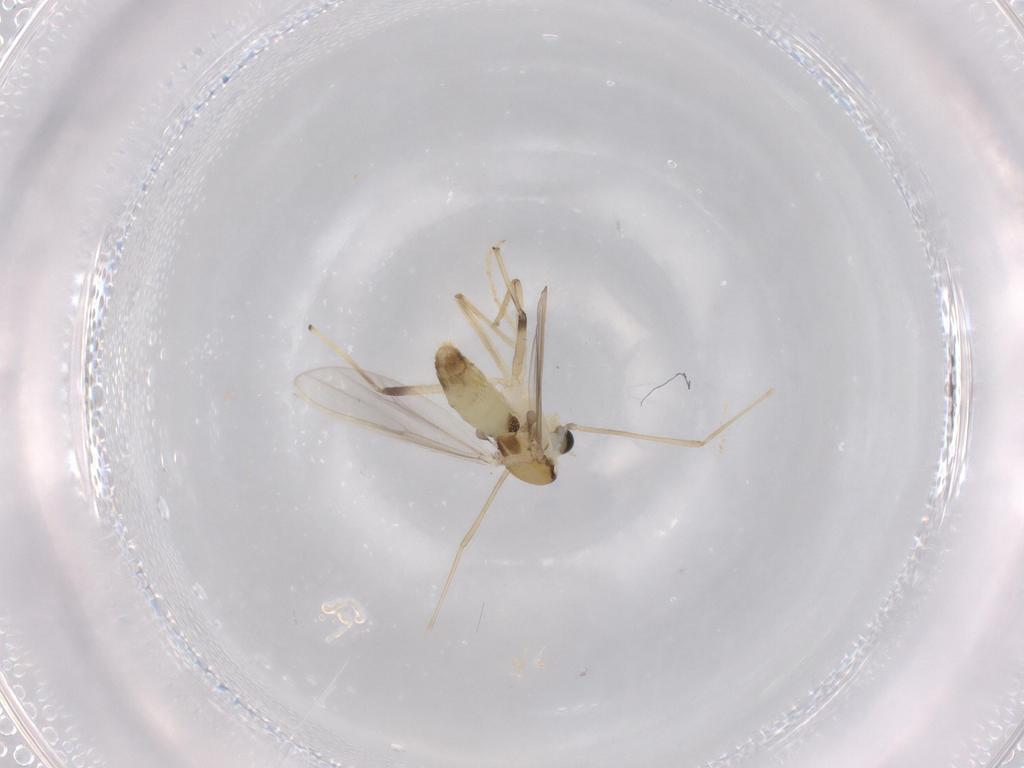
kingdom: Animalia
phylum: Arthropoda
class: Insecta
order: Diptera
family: Chironomidae
